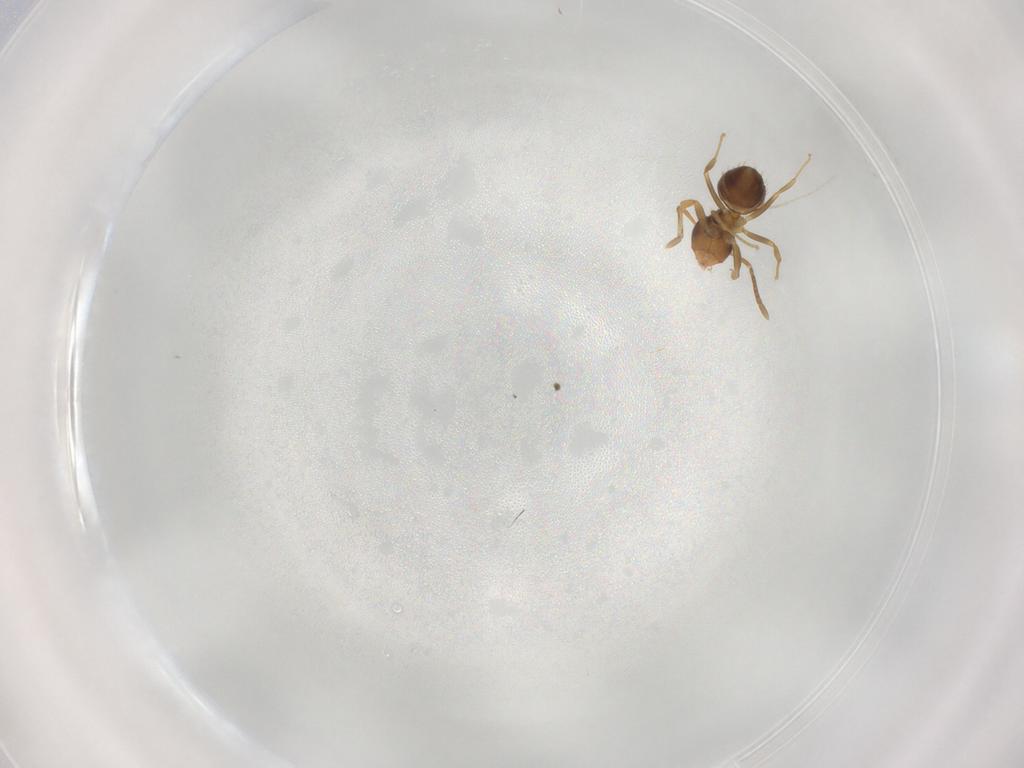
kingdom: Animalia
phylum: Arthropoda
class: Insecta
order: Hymenoptera
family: Formicidae
